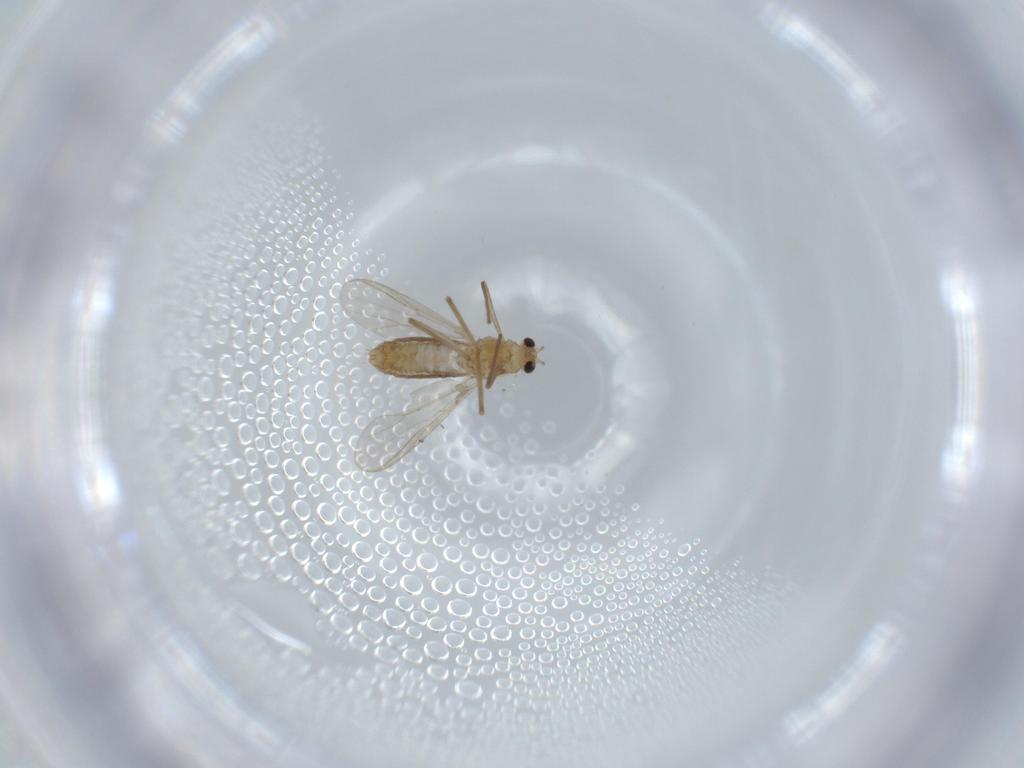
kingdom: Animalia
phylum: Arthropoda
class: Insecta
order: Diptera
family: Chironomidae
